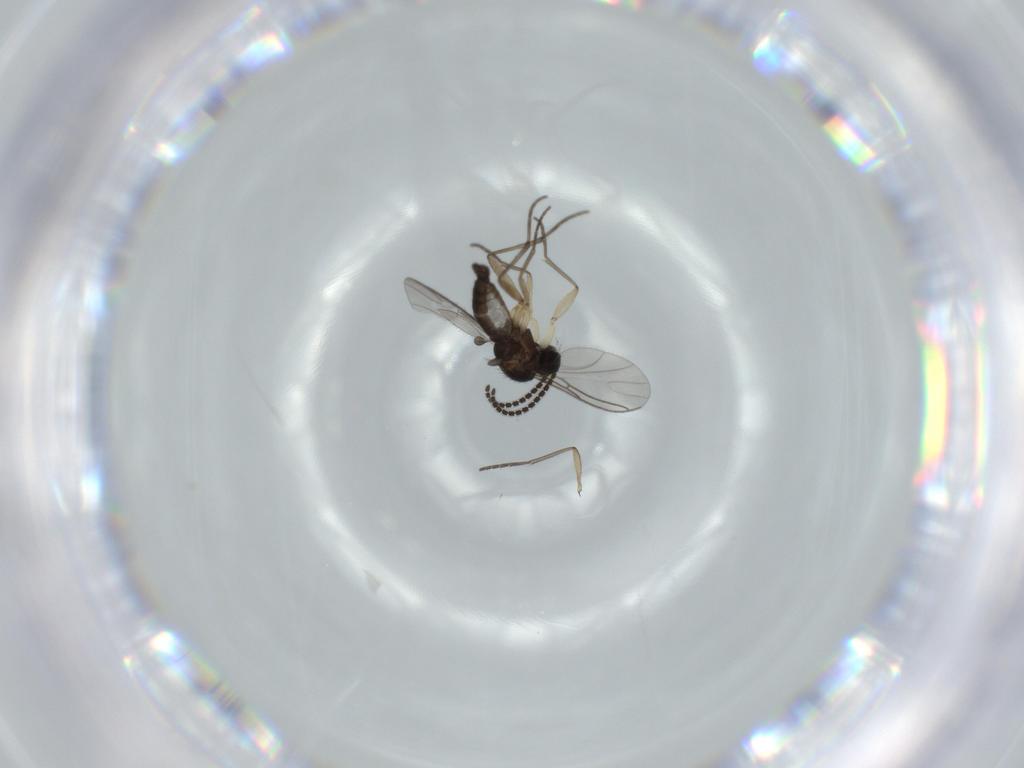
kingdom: Animalia
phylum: Arthropoda
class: Insecta
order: Diptera
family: Sciaridae
